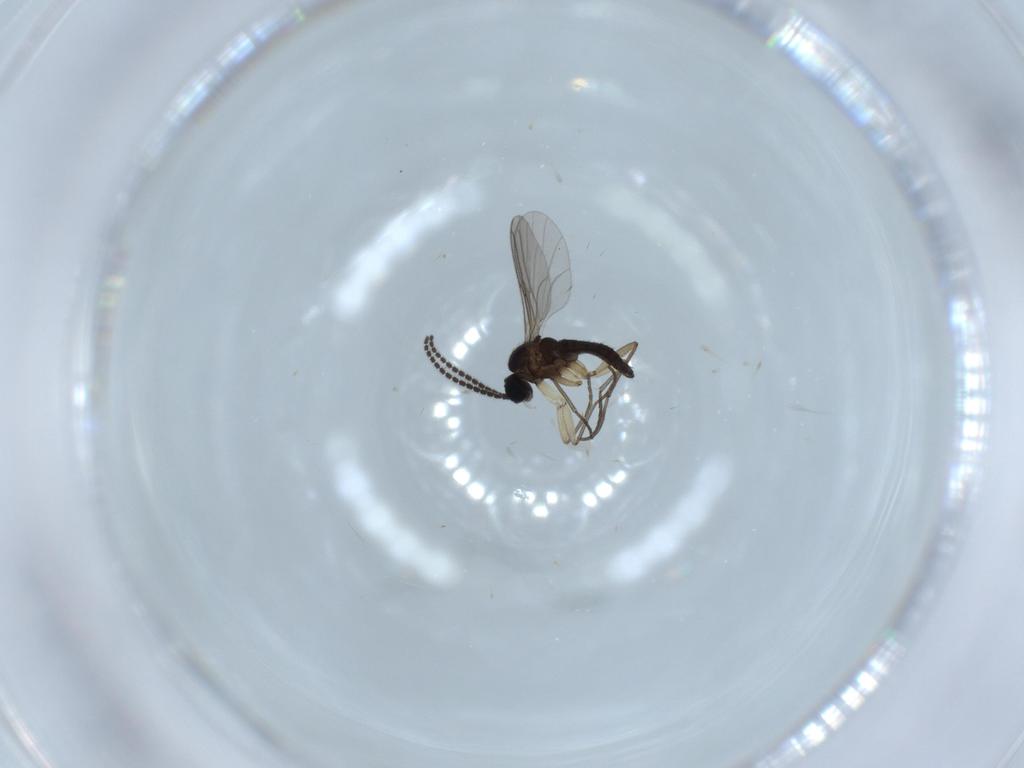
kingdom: Animalia
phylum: Arthropoda
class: Insecta
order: Diptera
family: Sciaridae
